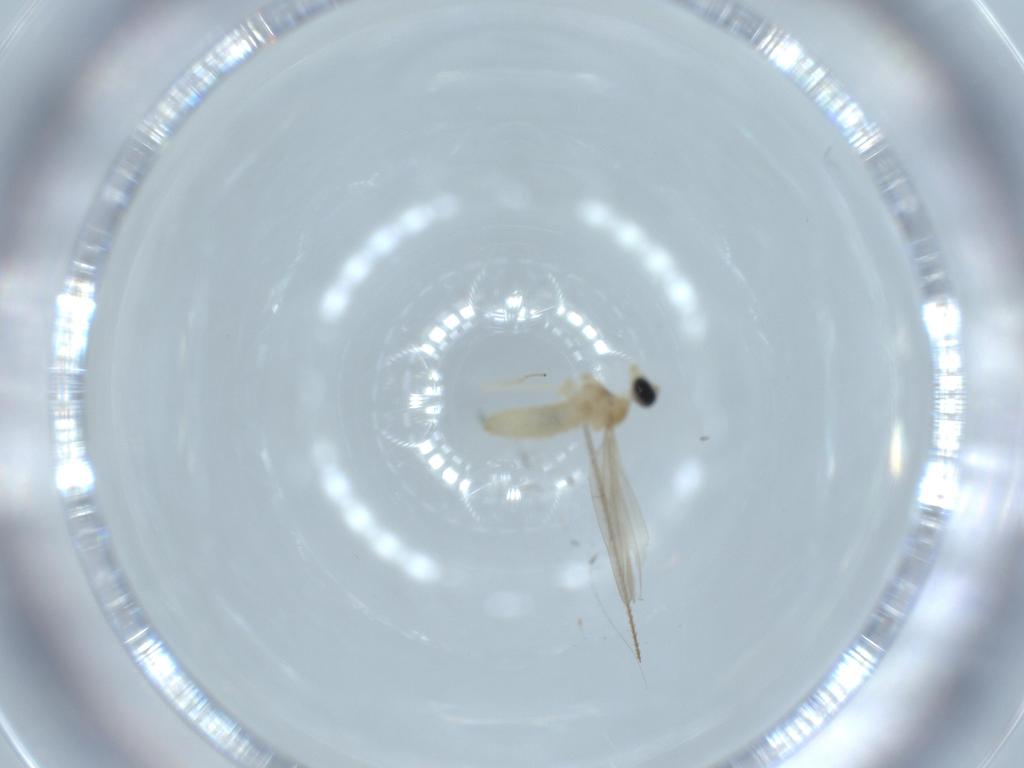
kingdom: Animalia
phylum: Arthropoda
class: Insecta
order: Diptera
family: Cecidomyiidae
